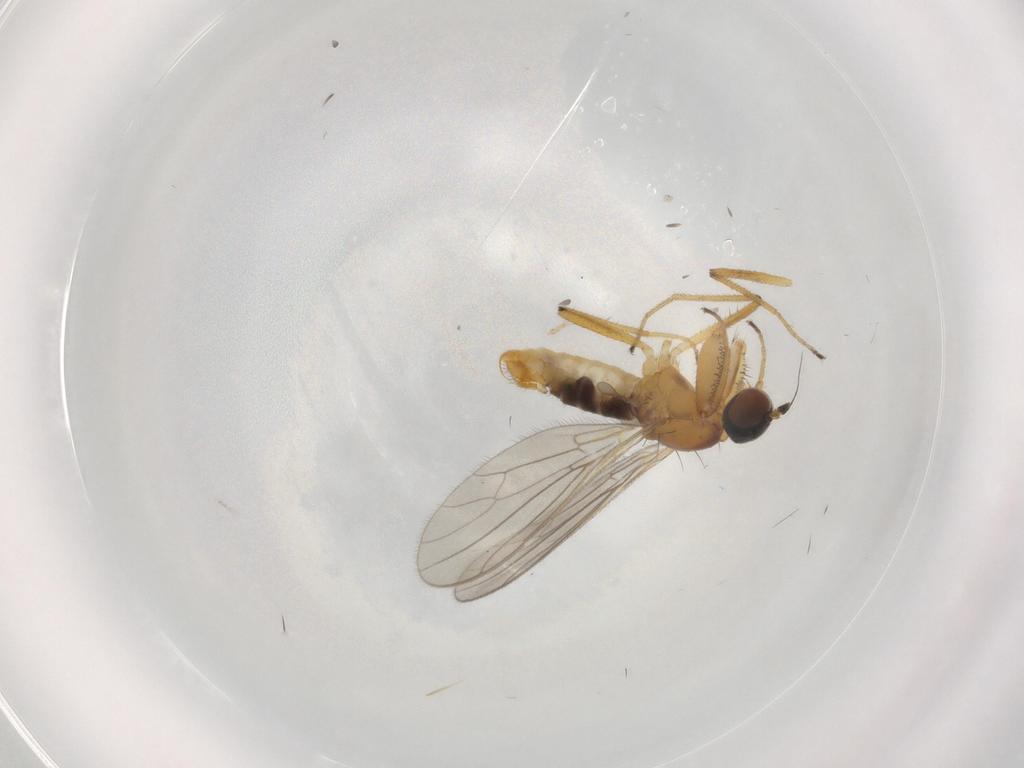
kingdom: Animalia
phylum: Arthropoda
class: Insecta
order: Diptera
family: Empididae
